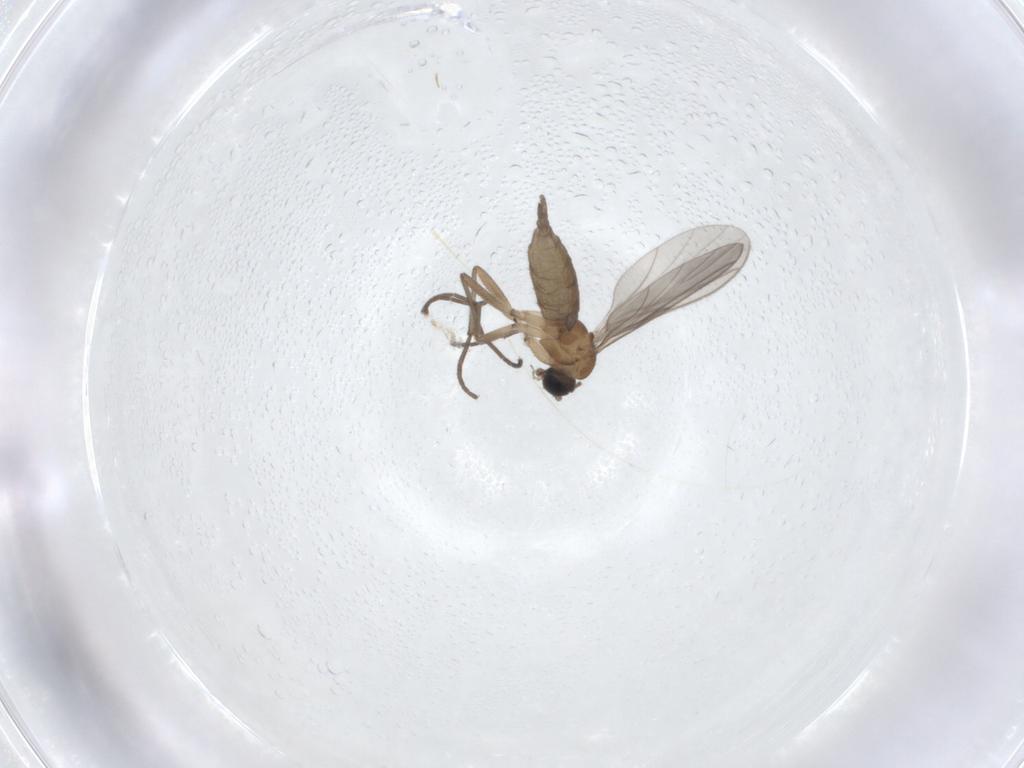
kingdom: Animalia
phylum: Arthropoda
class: Insecta
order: Diptera
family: Sciaridae
